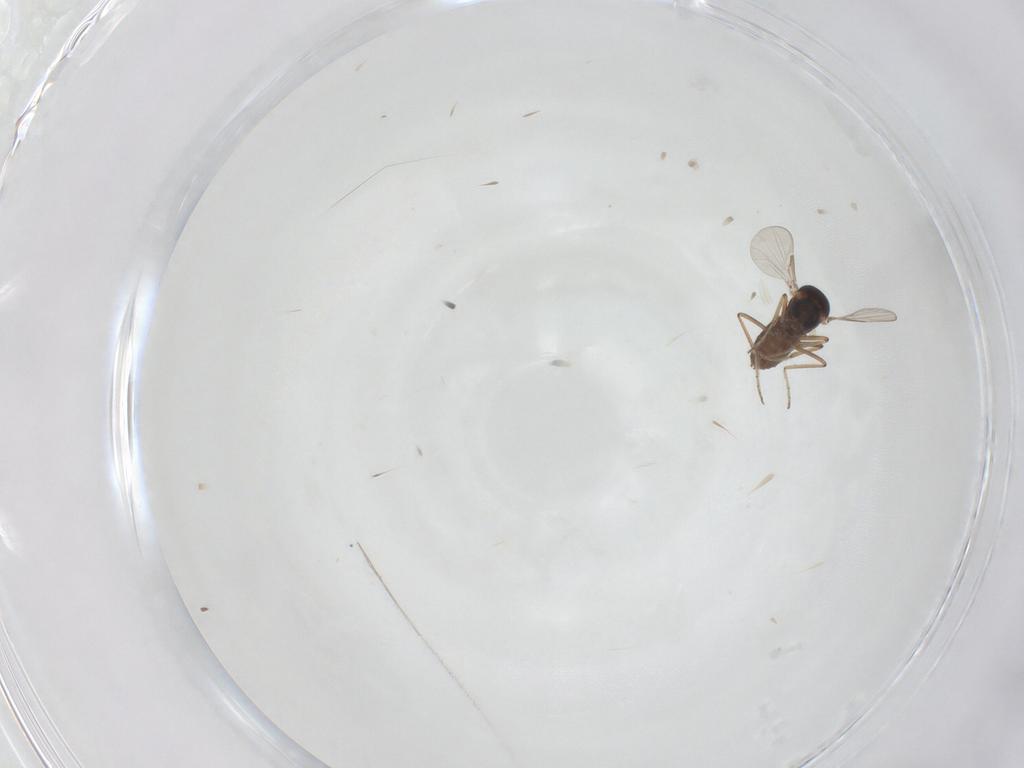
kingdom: Animalia
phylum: Arthropoda
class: Insecta
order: Diptera
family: Ceratopogonidae
